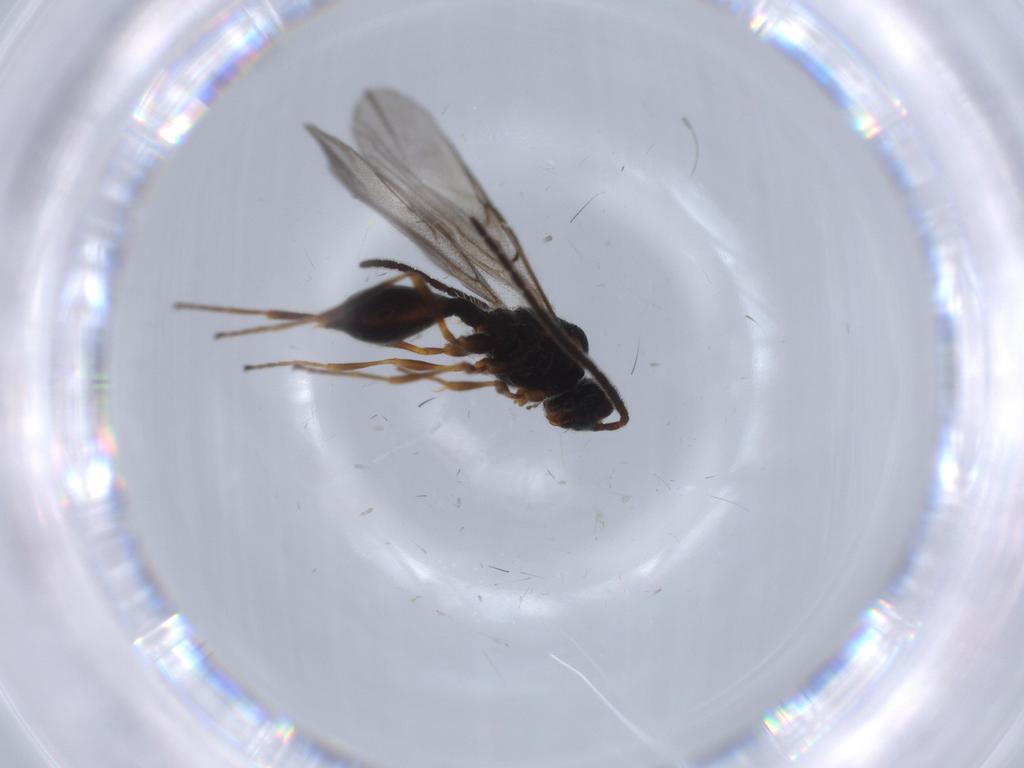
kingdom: Animalia
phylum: Arthropoda
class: Insecta
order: Hymenoptera
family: Diapriidae
